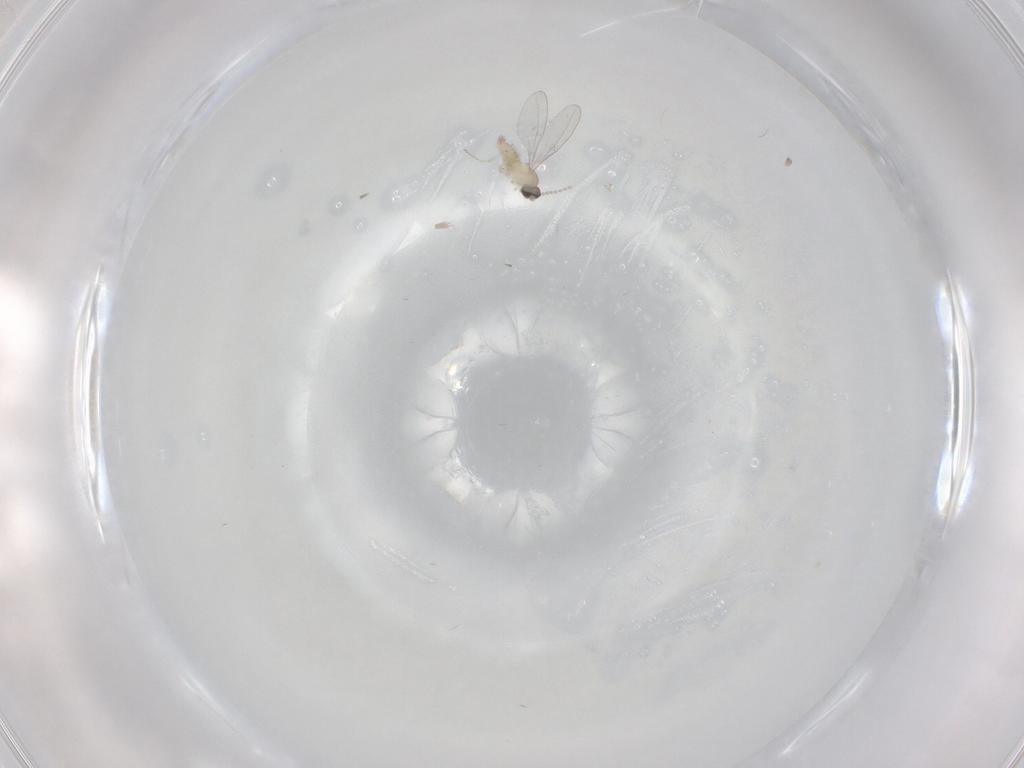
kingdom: Animalia
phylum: Arthropoda
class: Insecta
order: Diptera
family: Cecidomyiidae
